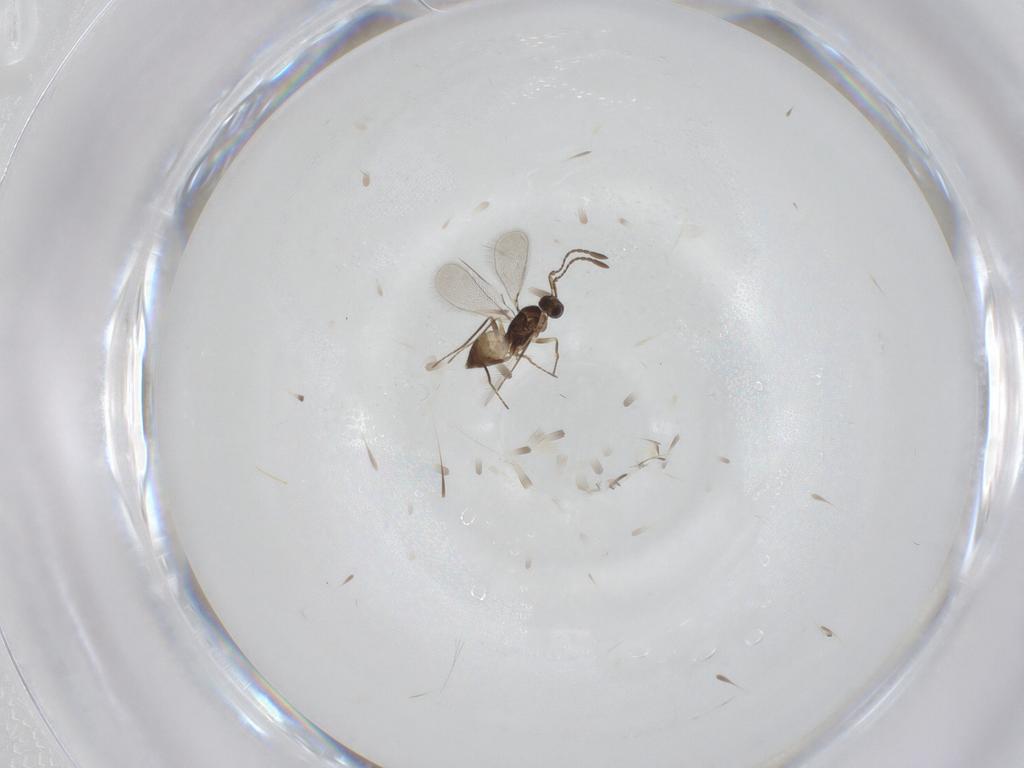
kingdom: Animalia
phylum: Arthropoda
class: Insecta
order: Hymenoptera
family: Mymaridae
